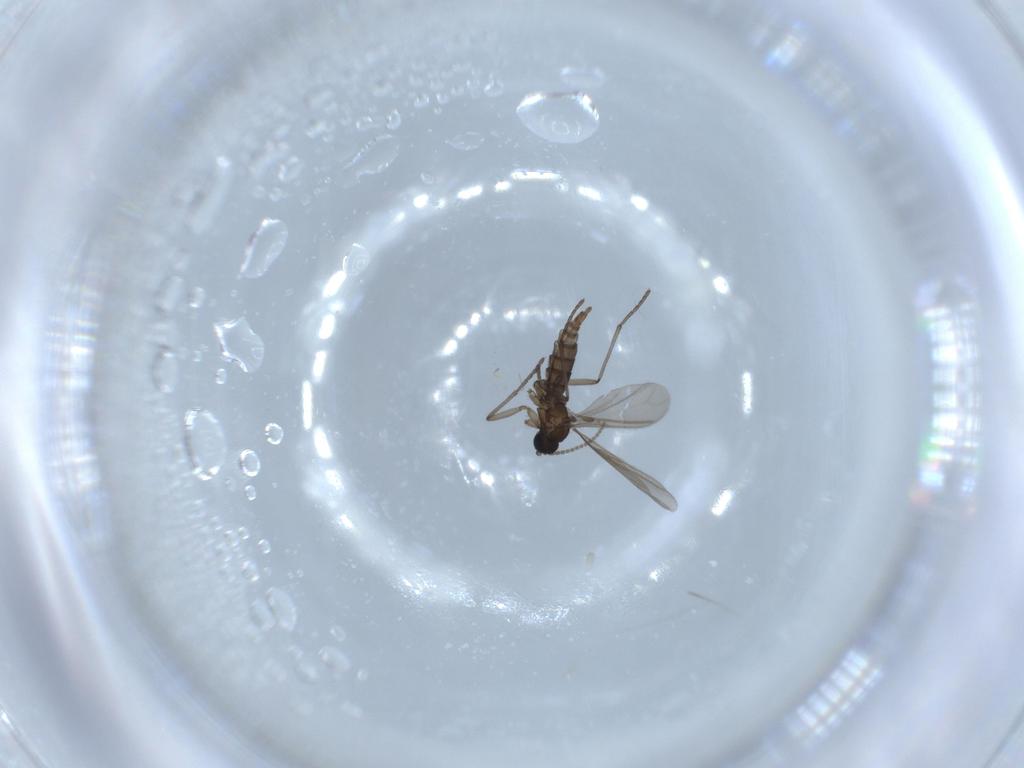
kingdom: Animalia
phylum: Arthropoda
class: Insecta
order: Diptera
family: Sciaridae
